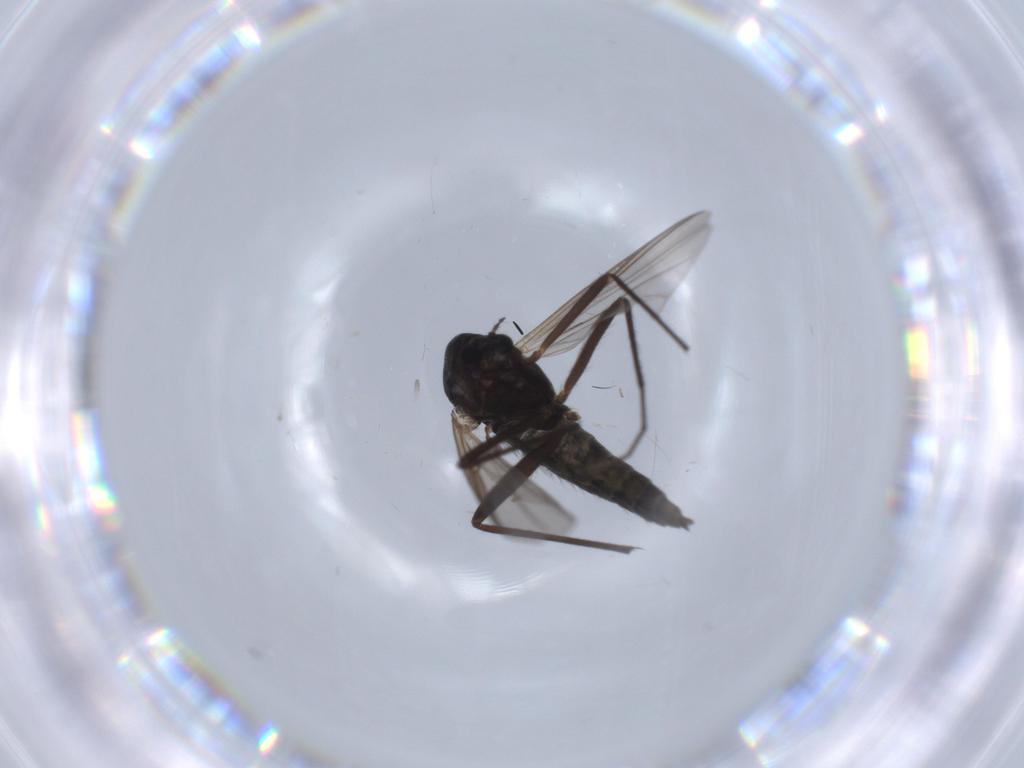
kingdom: Animalia
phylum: Arthropoda
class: Insecta
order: Diptera
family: Chironomidae
